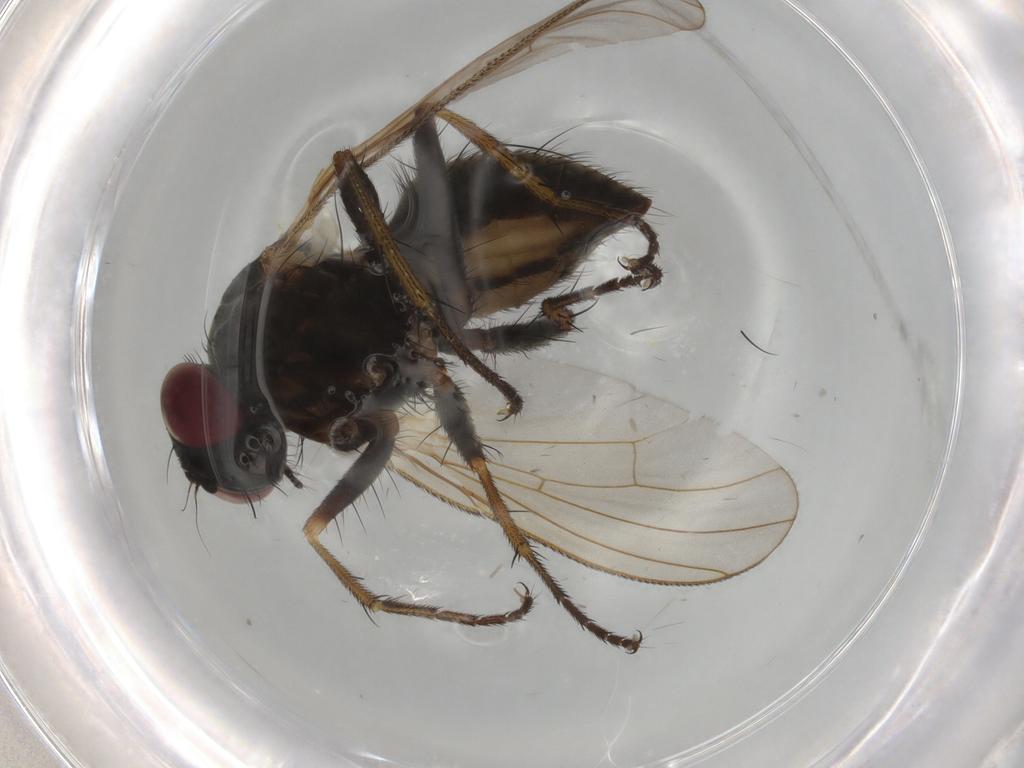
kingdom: Animalia
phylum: Arthropoda
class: Insecta
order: Diptera
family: Muscidae
